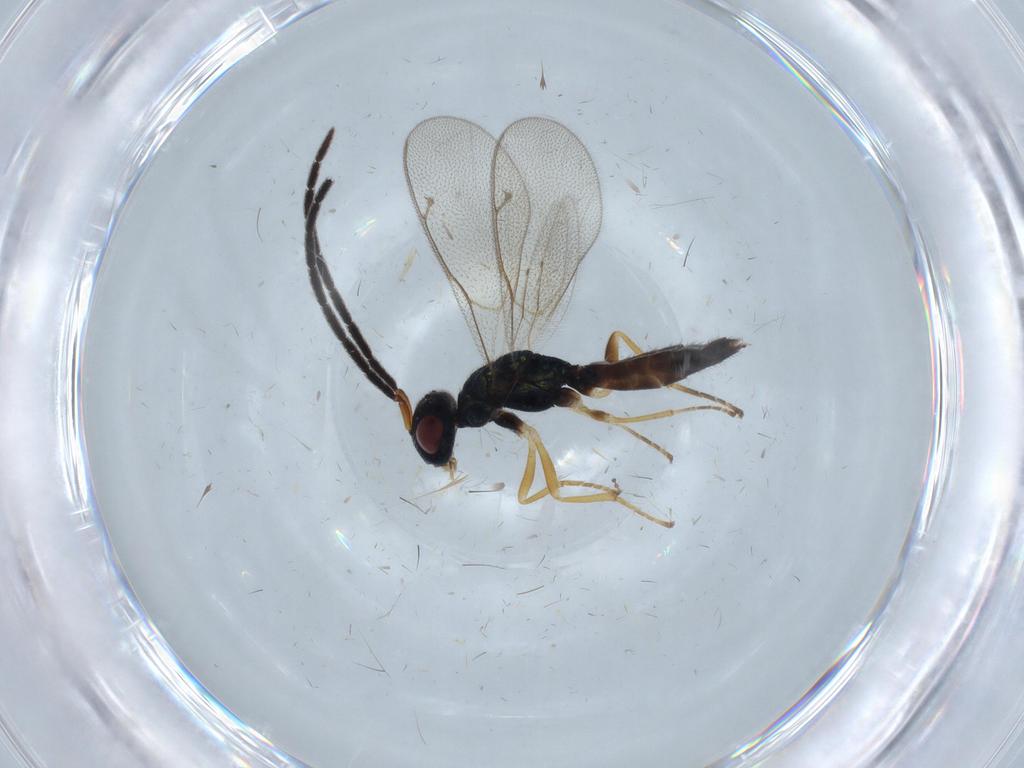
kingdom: Animalia
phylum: Arthropoda
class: Insecta
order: Hymenoptera
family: Pteromalidae
